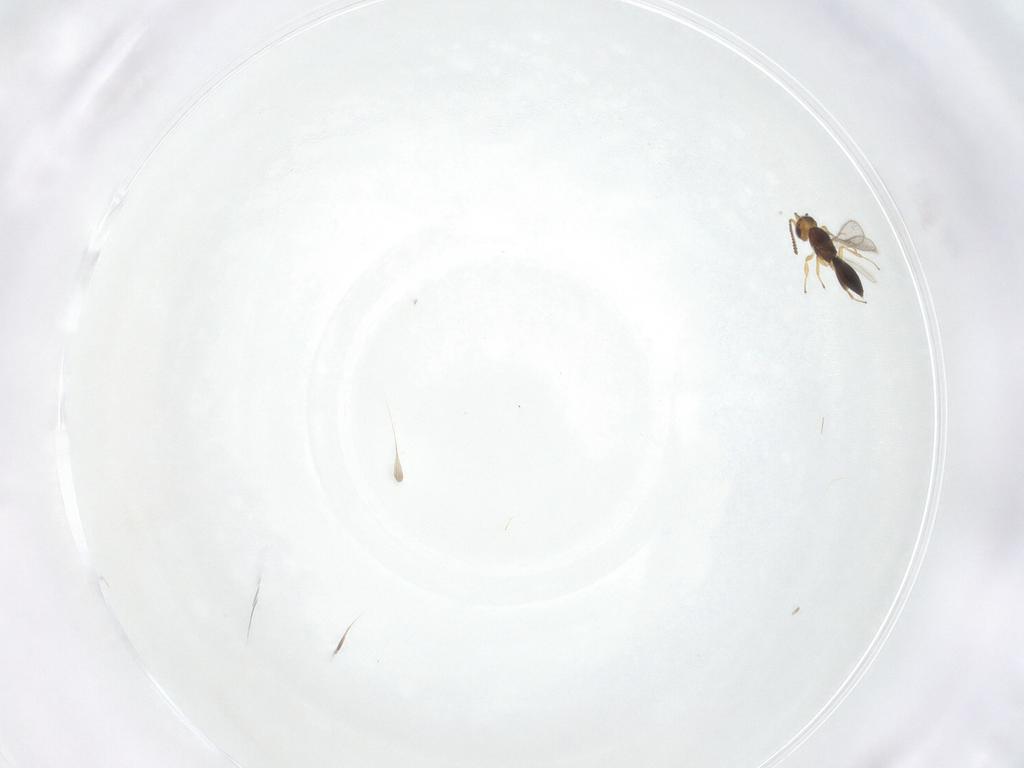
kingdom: Animalia
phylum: Arthropoda
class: Insecta
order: Hymenoptera
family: Scelionidae
